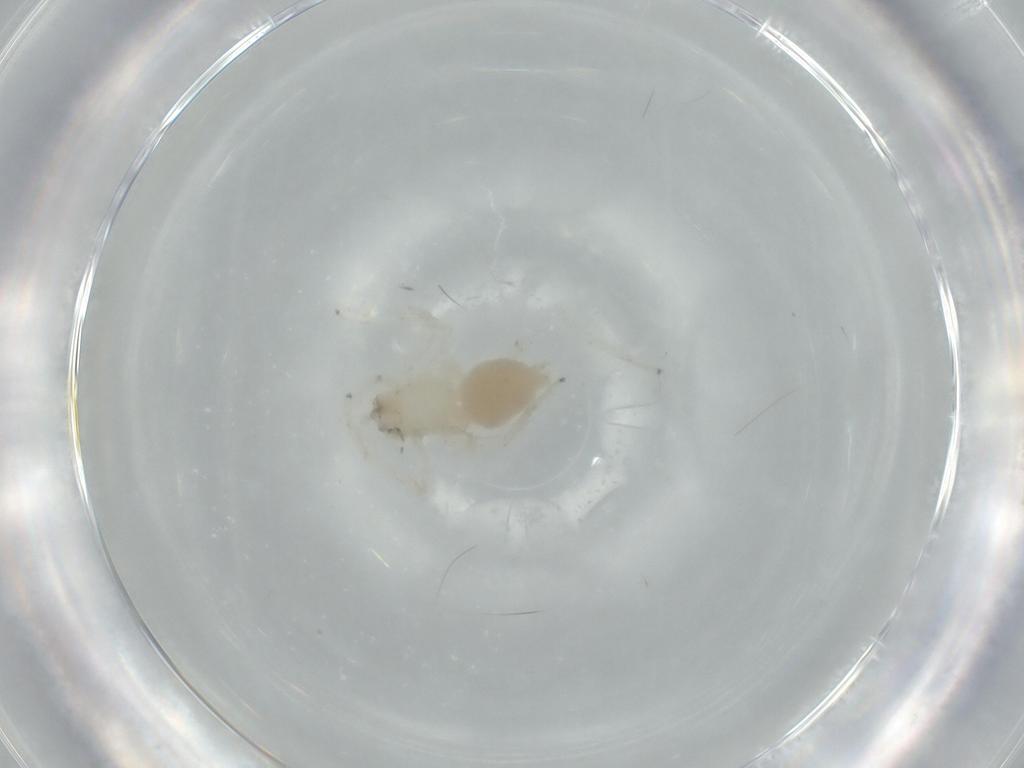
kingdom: Animalia
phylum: Arthropoda
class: Arachnida
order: Araneae
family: Anyphaenidae
